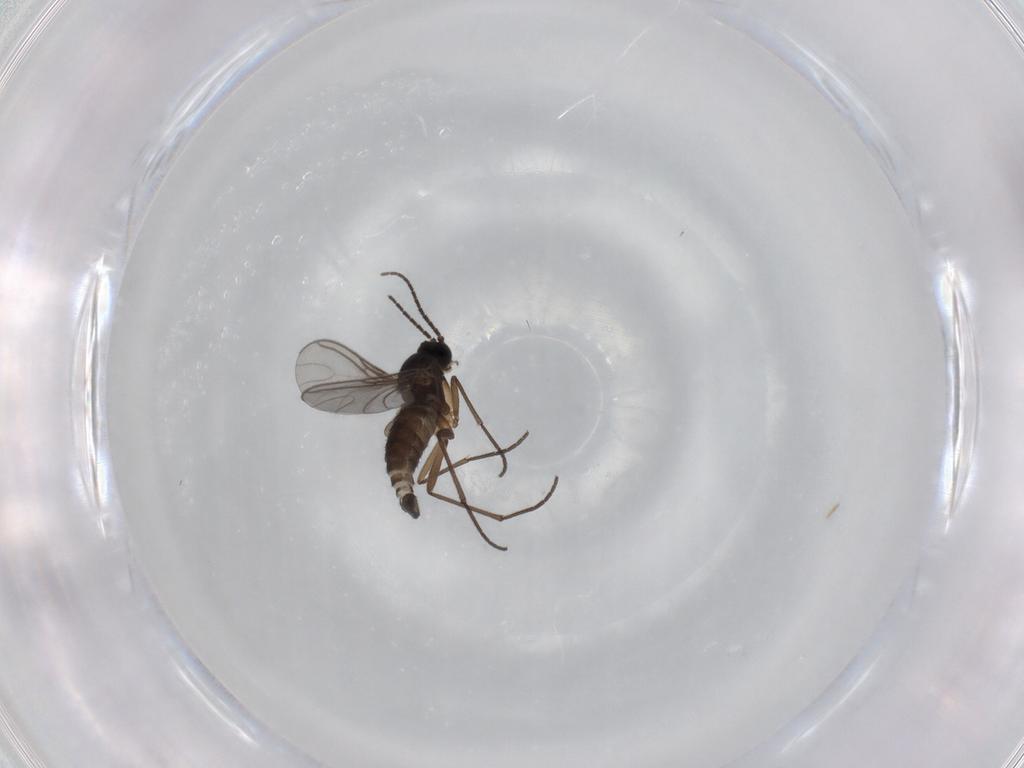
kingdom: Animalia
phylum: Arthropoda
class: Insecta
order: Diptera
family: Sciaridae
